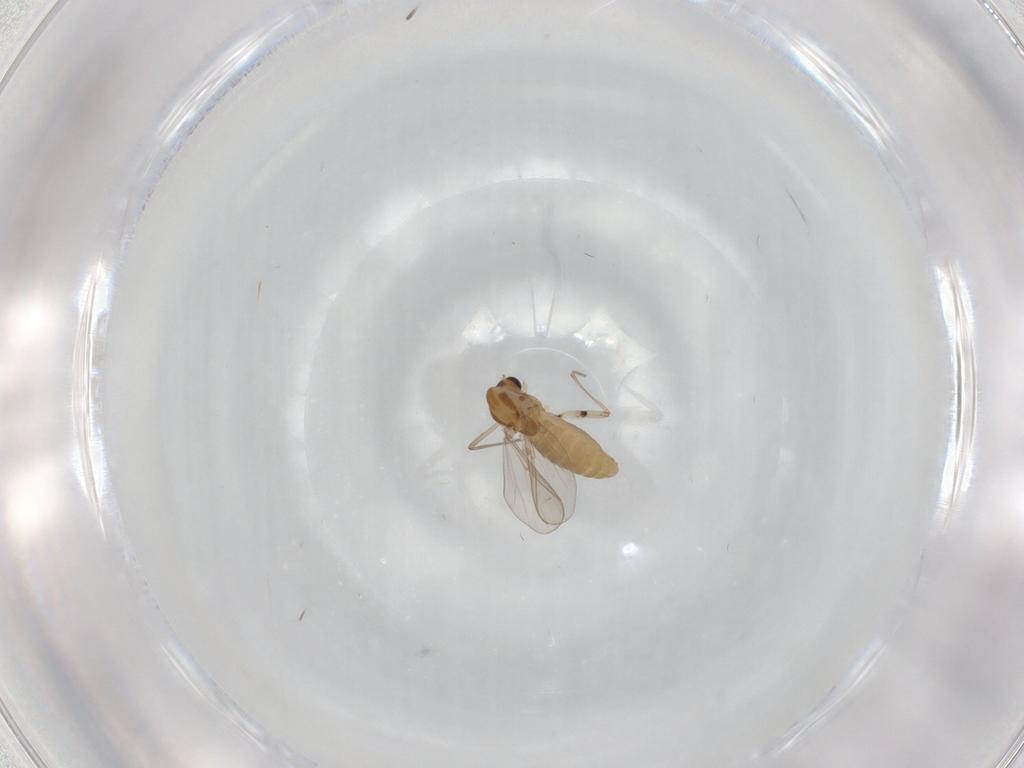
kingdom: Animalia
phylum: Arthropoda
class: Insecta
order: Diptera
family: Chironomidae
